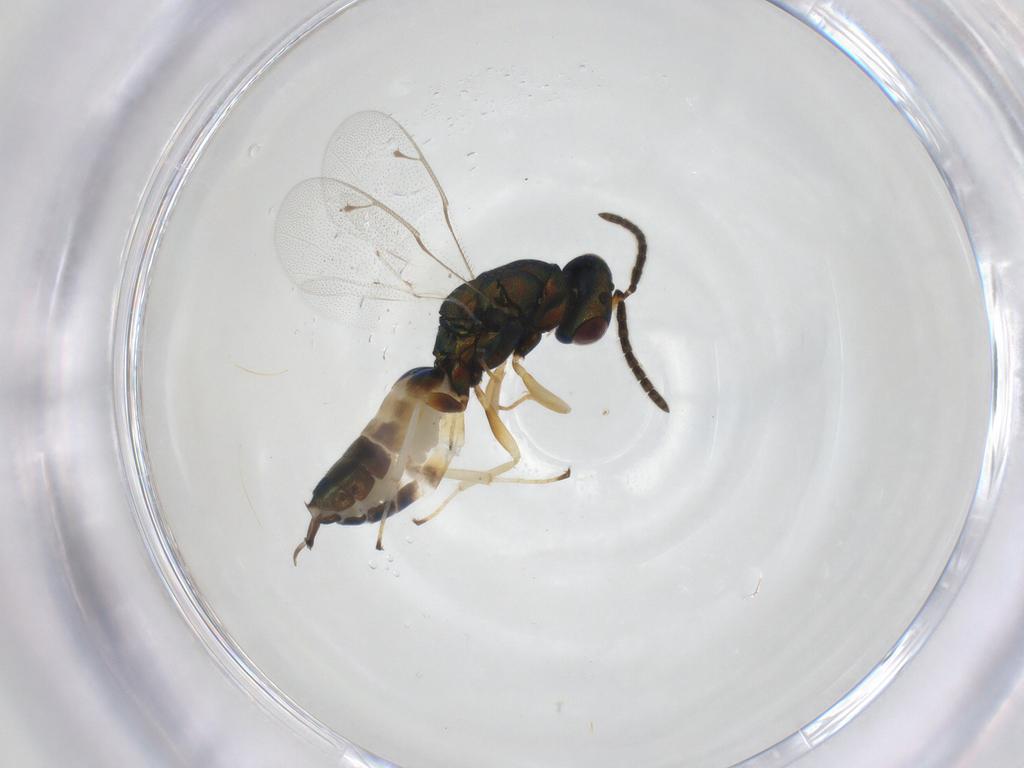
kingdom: Animalia
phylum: Arthropoda
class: Insecta
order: Hymenoptera
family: Pteromalidae
